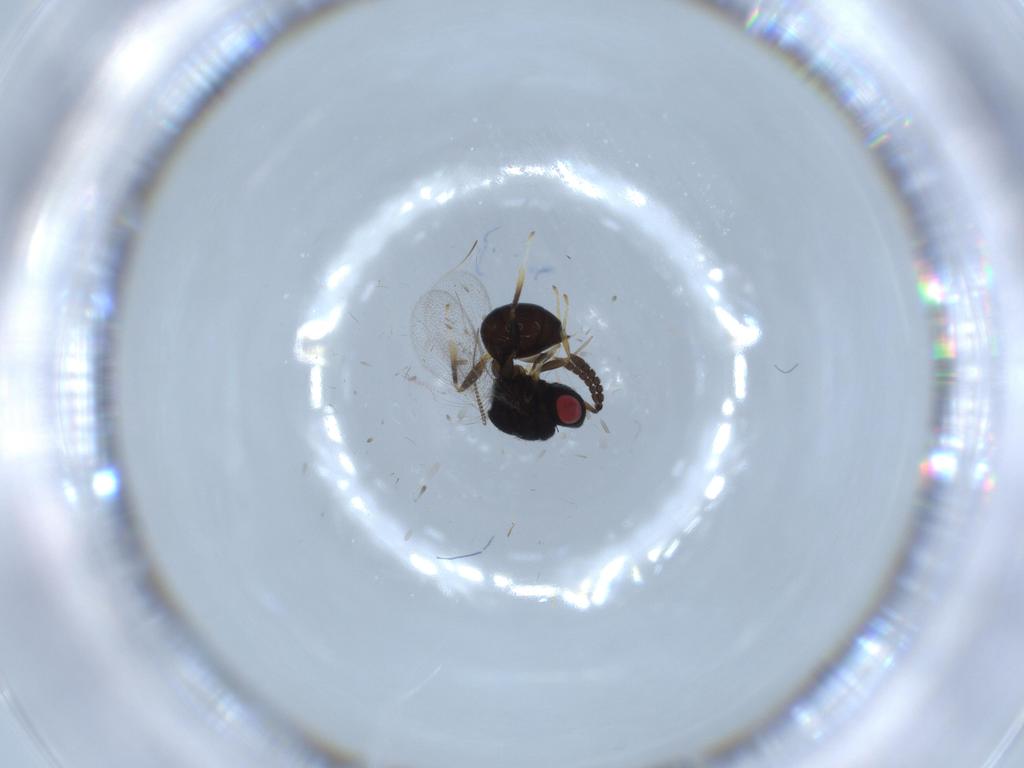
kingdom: Animalia
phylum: Arthropoda
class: Insecta
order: Hymenoptera
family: Eurytomidae
